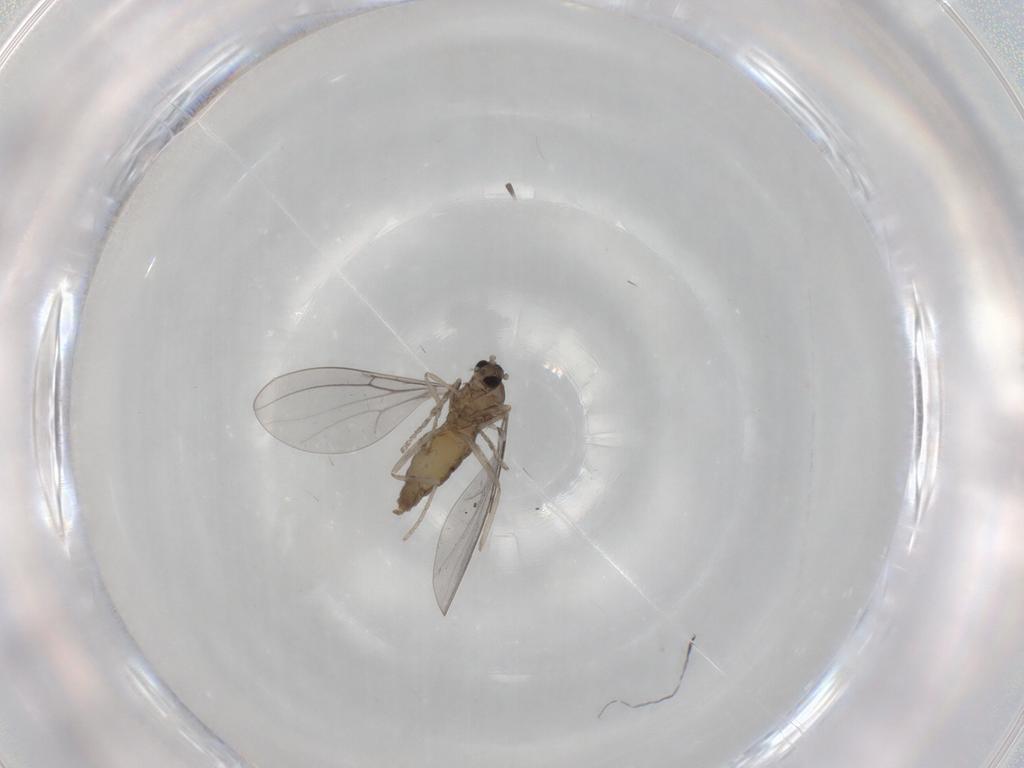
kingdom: Animalia
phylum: Arthropoda
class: Insecta
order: Diptera
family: Cecidomyiidae
